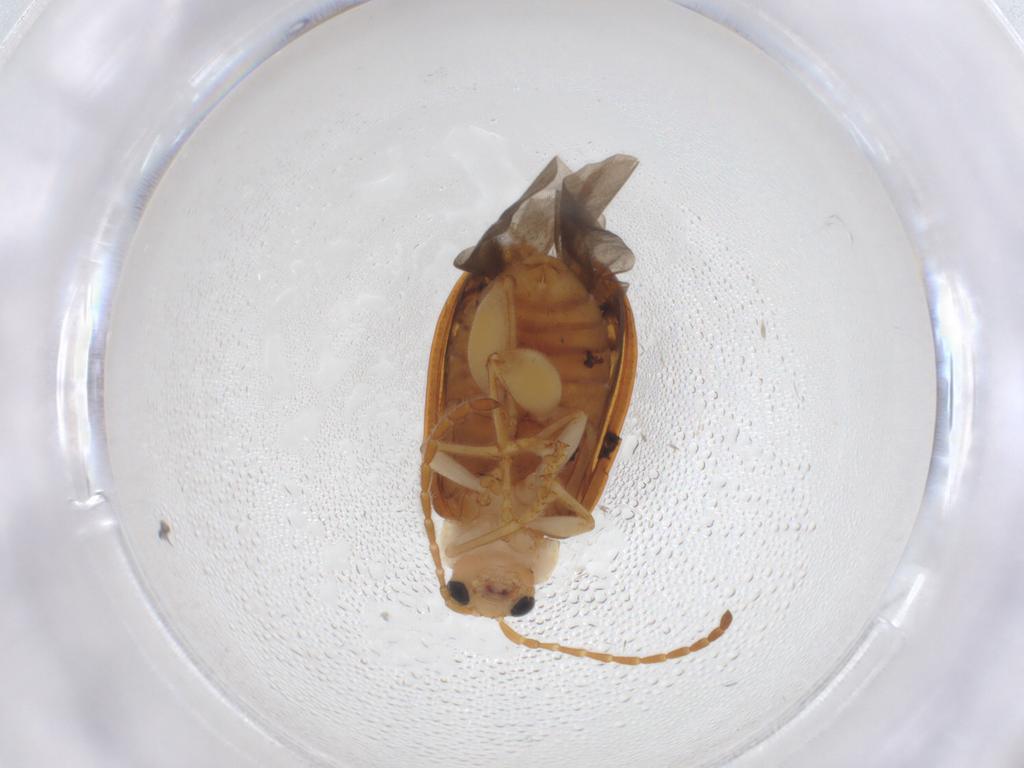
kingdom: Animalia
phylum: Arthropoda
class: Insecta
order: Coleoptera
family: Chrysomelidae
